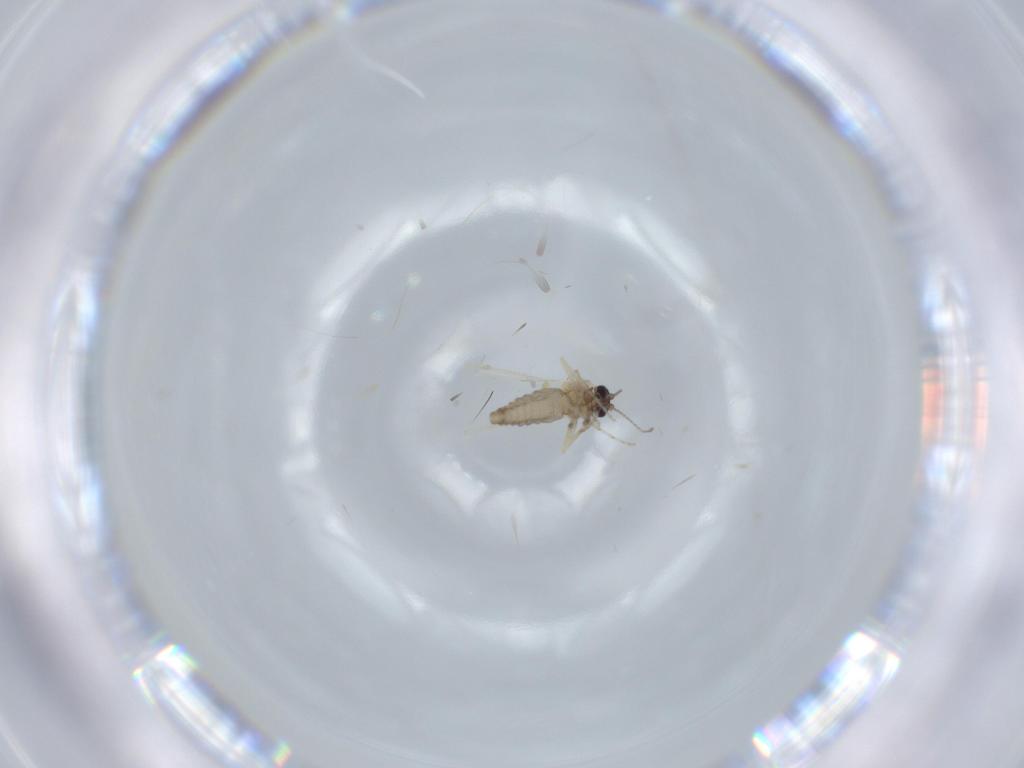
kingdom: Animalia
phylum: Arthropoda
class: Insecta
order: Diptera
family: Ceratopogonidae
